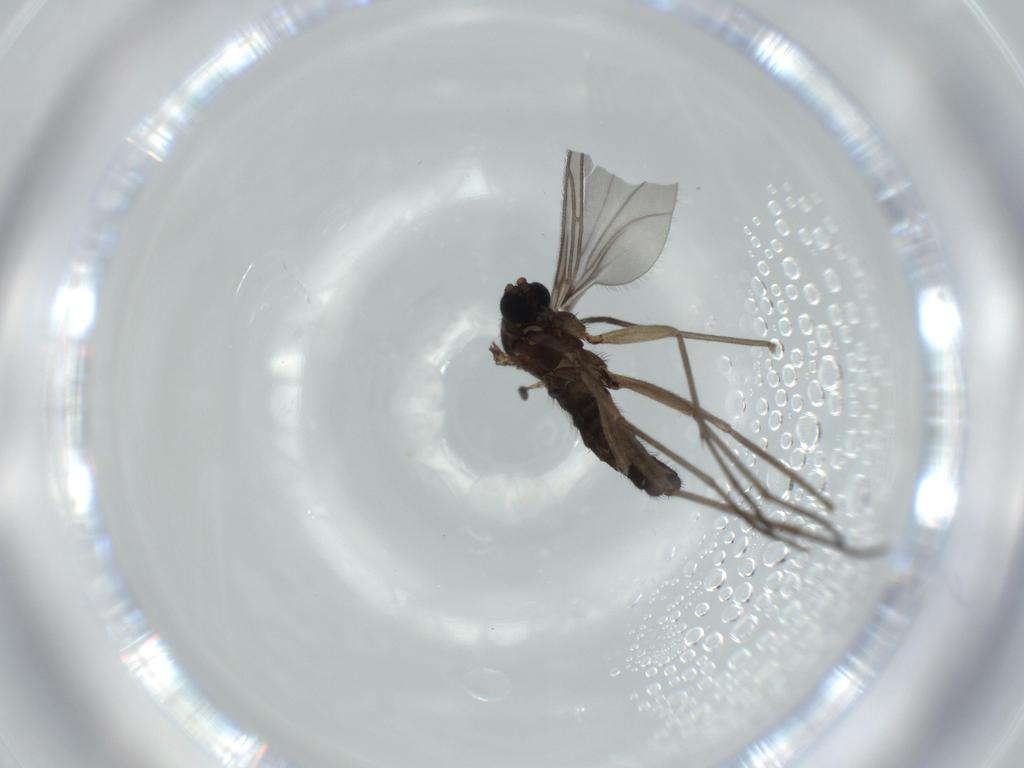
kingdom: Animalia
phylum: Arthropoda
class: Insecta
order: Diptera
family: Sciaridae
